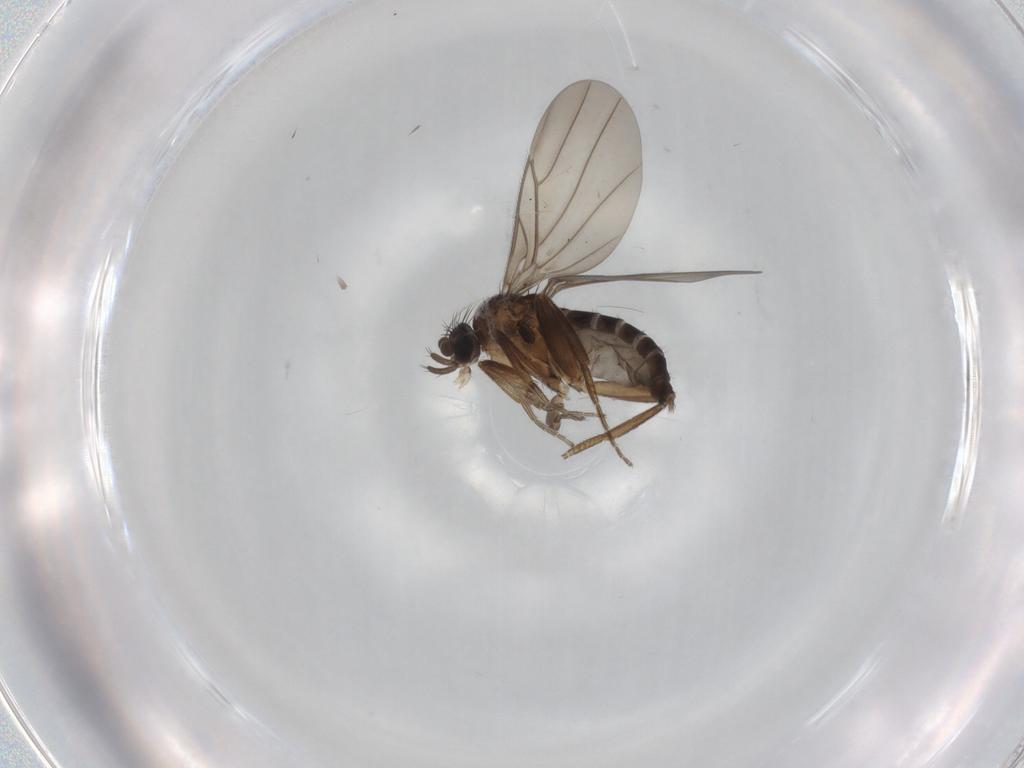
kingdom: Animalia
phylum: Arthropoda
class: Insecta
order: Diptera
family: Phoridae
